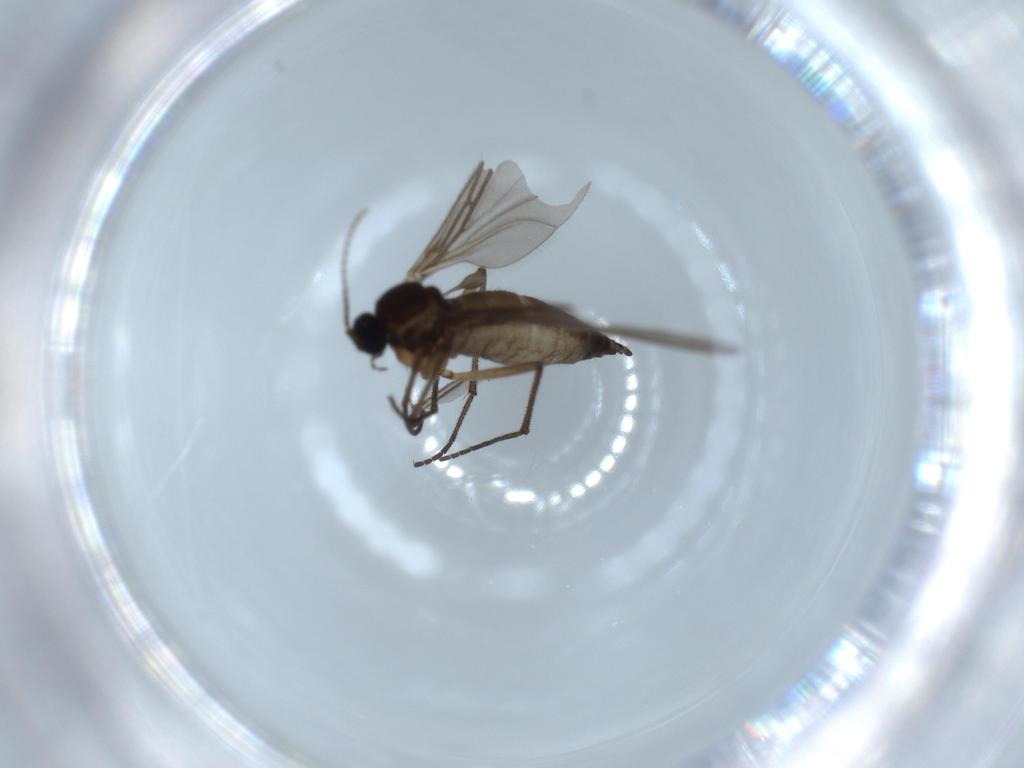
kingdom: Animalia
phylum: Arthropoda
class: Insecta
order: Diptera
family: Sciaridae
